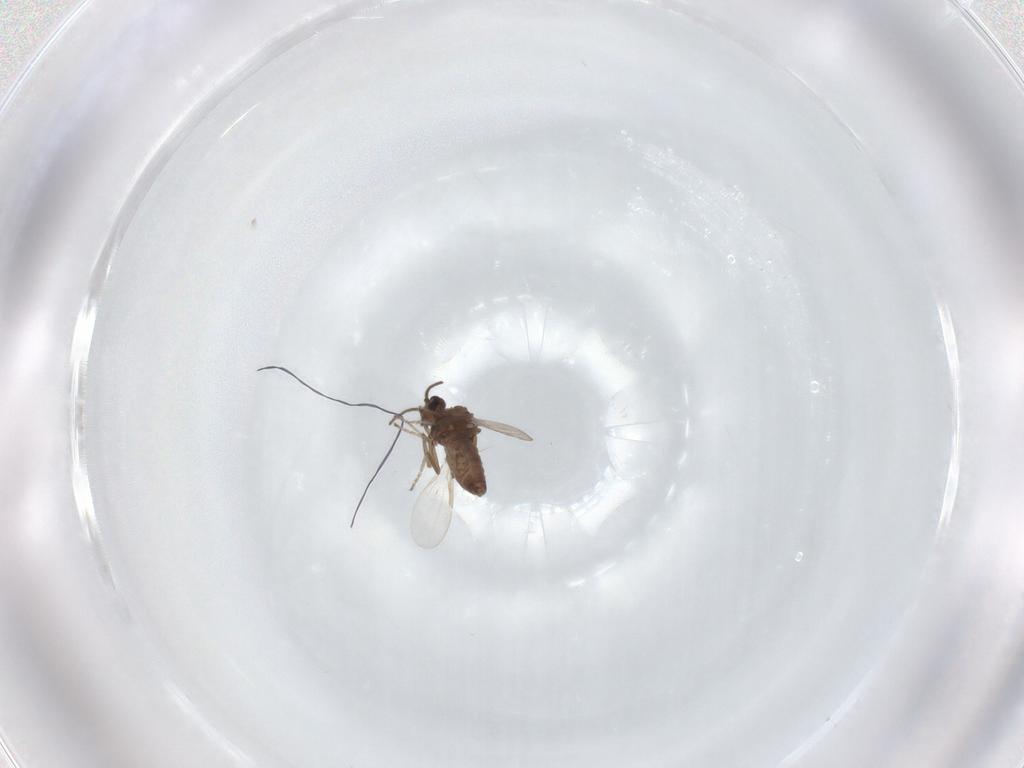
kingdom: Animalia
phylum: Arthropoda
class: Insecta
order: Diptera
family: Ceratopogonidae
